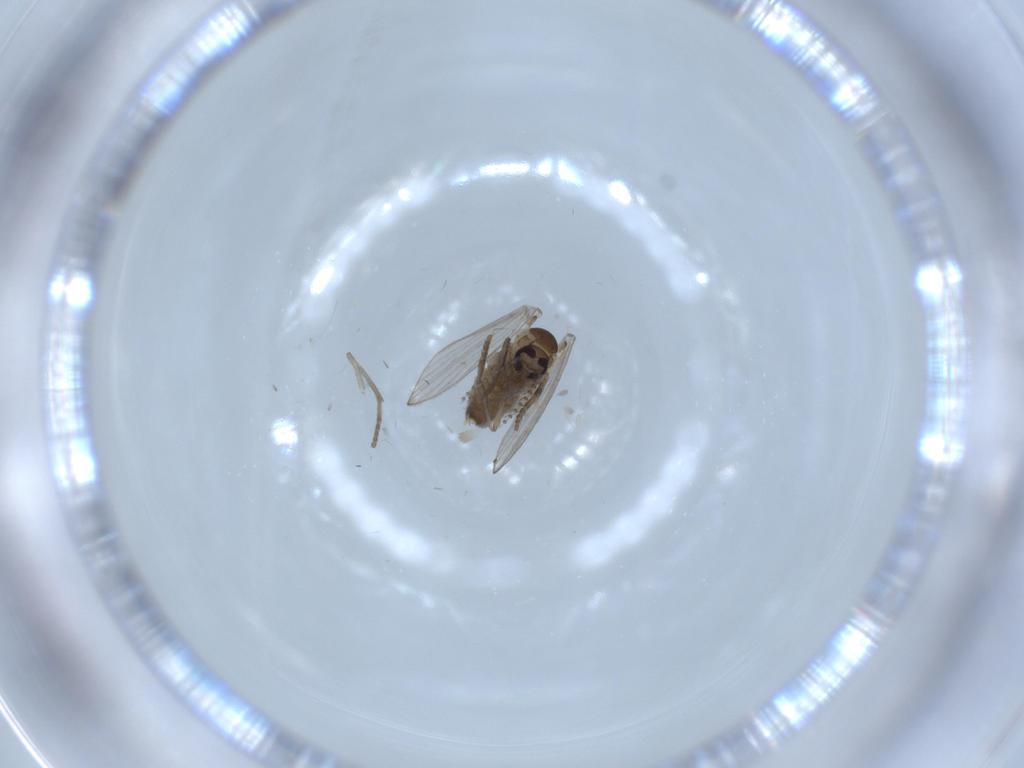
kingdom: Animalia
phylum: Arthropoda
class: Insecta
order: Diptera
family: Psychodidae
